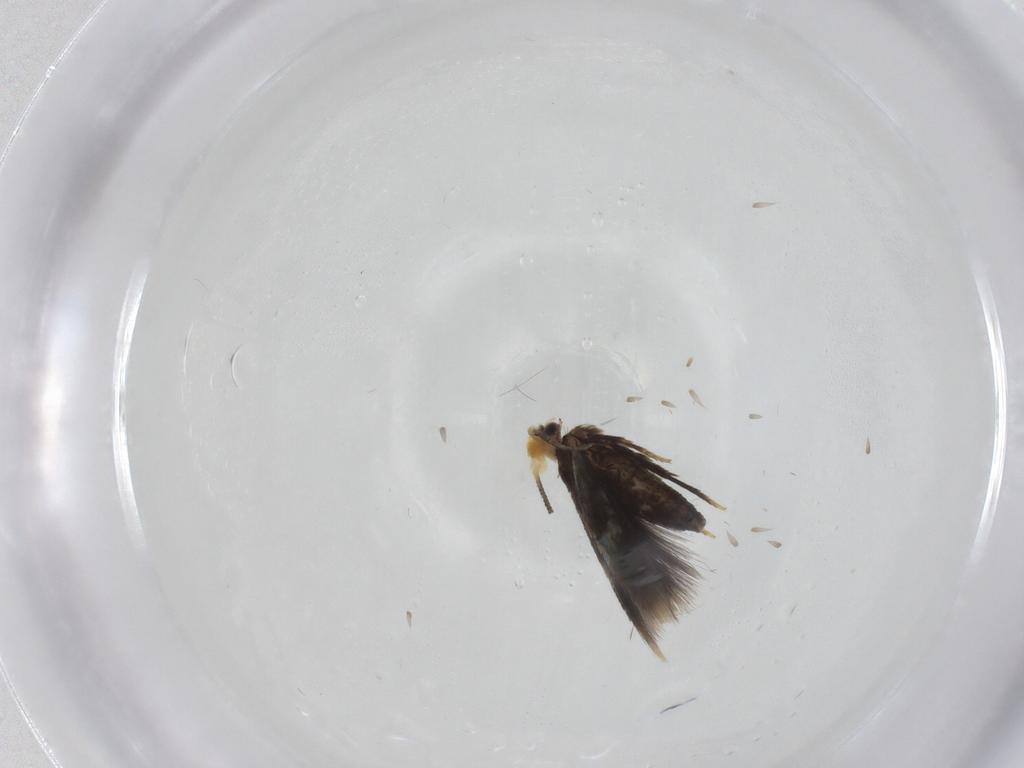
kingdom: Animalia
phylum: Arthropoda
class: Insecta
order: Lepidoptera
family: Nepticulidae
